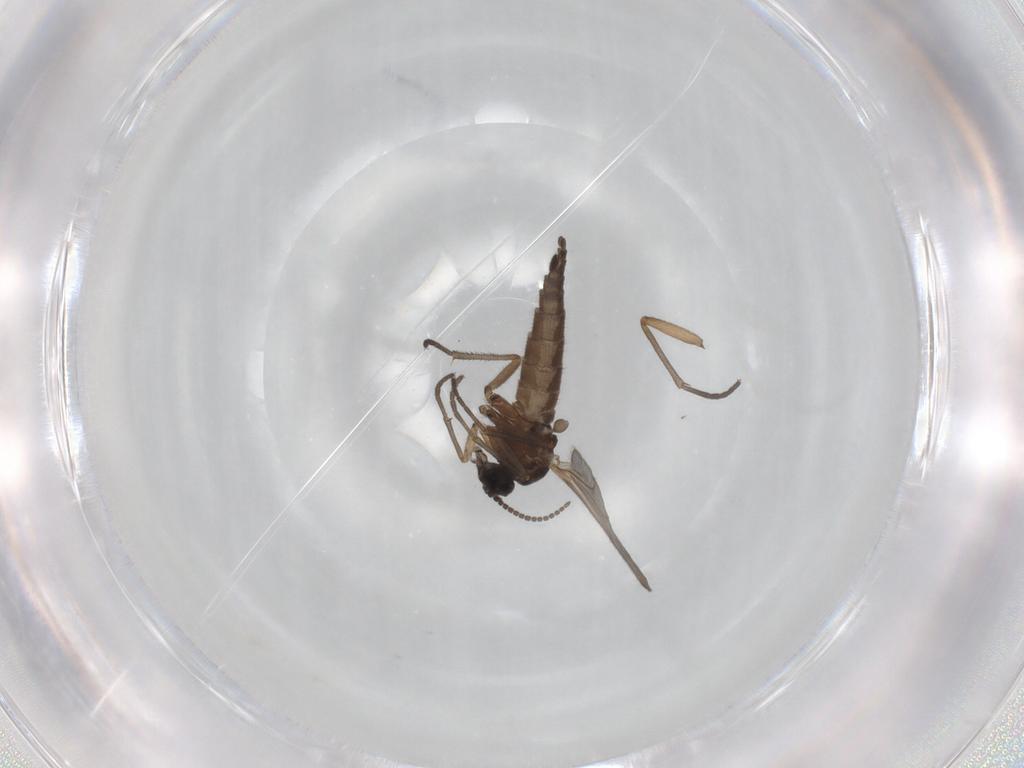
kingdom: Animalia
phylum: Arthropoda
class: Insecta
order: Diptera
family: Sciaridae
